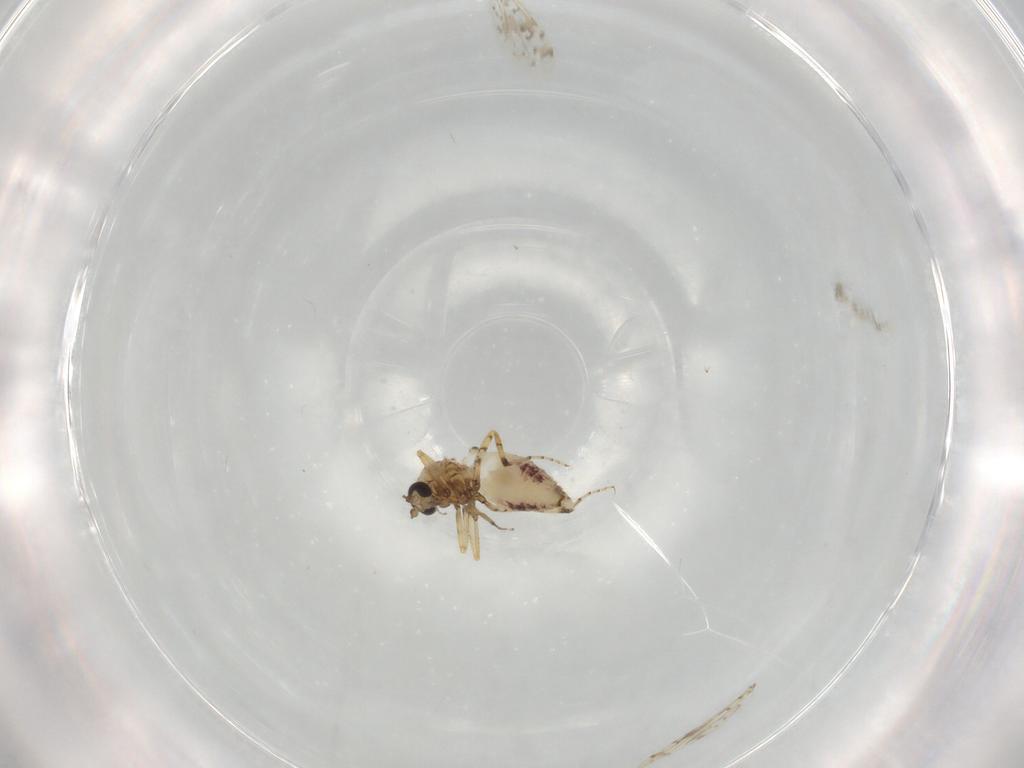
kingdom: Animalia
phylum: Arthropoda
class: Insecta
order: Diptera
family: Ceratopogonidae
